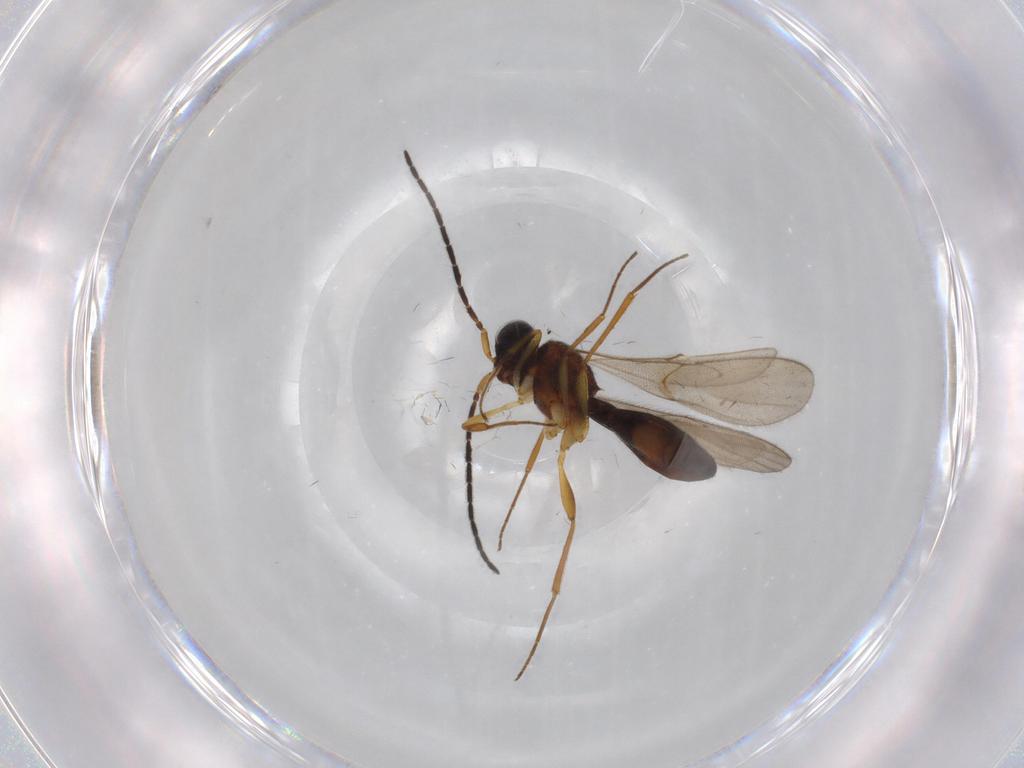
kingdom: Animalia
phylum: Arthropoda
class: Insecta
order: Hymenoptera
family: Scelionidae
